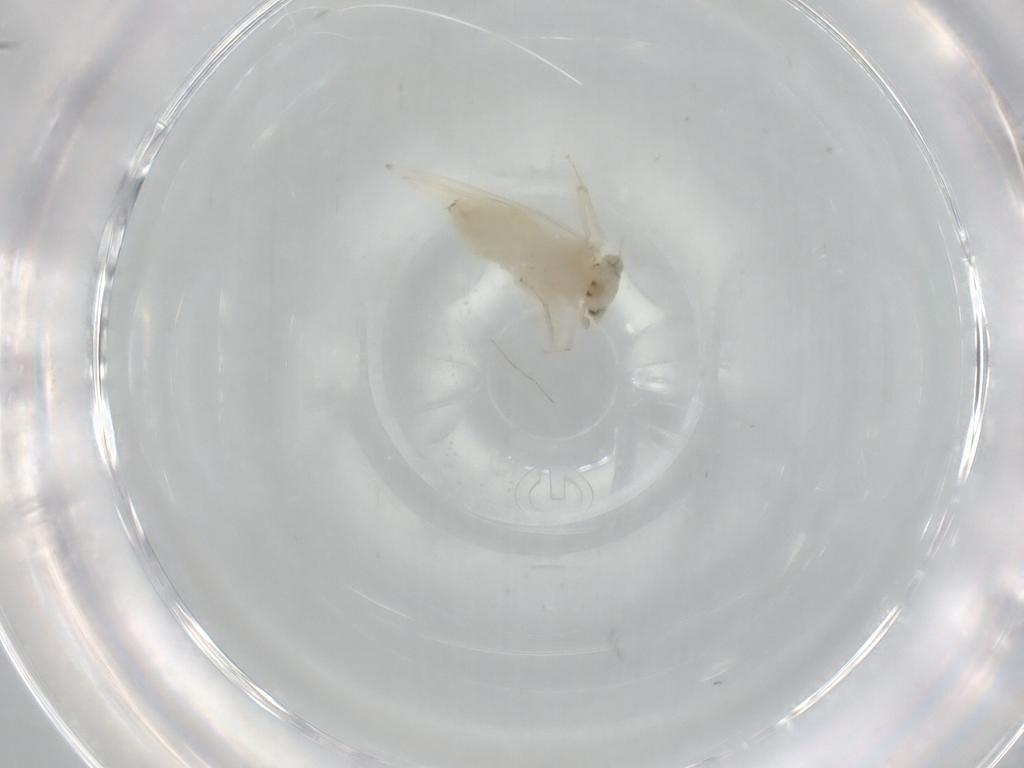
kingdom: Animalia
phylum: Arthropoda
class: Insecta
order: Psocodea
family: Lepidopsocidae
